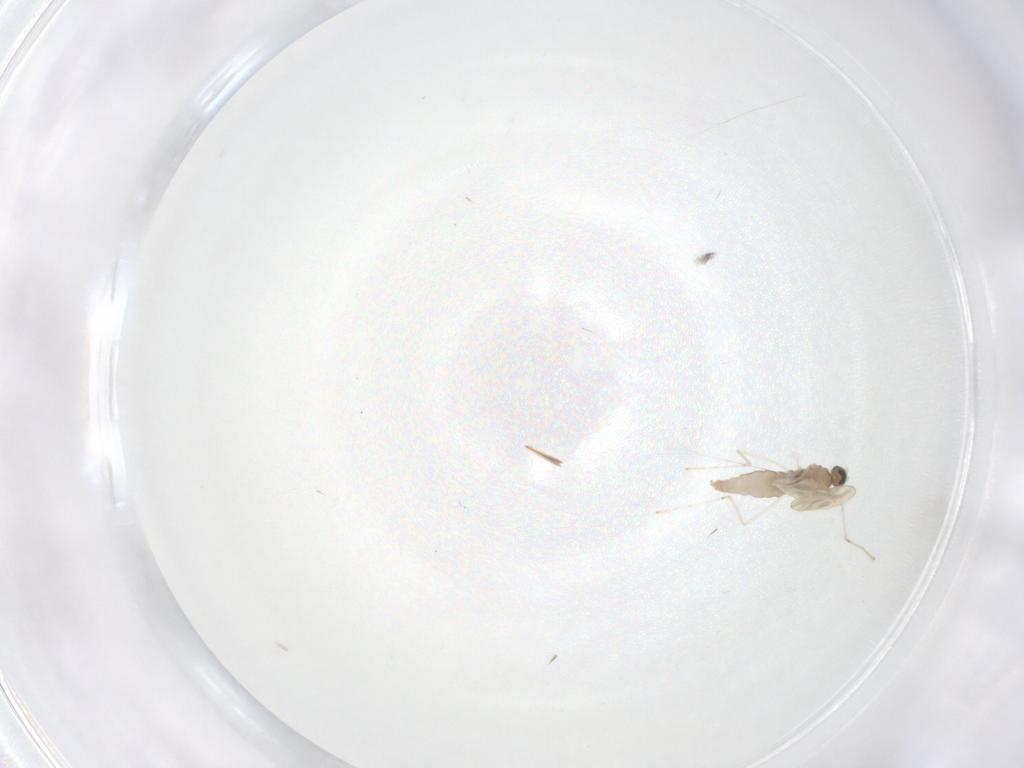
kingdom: Animalia
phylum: Arthropoda
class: Insecta
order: Diptera
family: Cecidomyiidae
